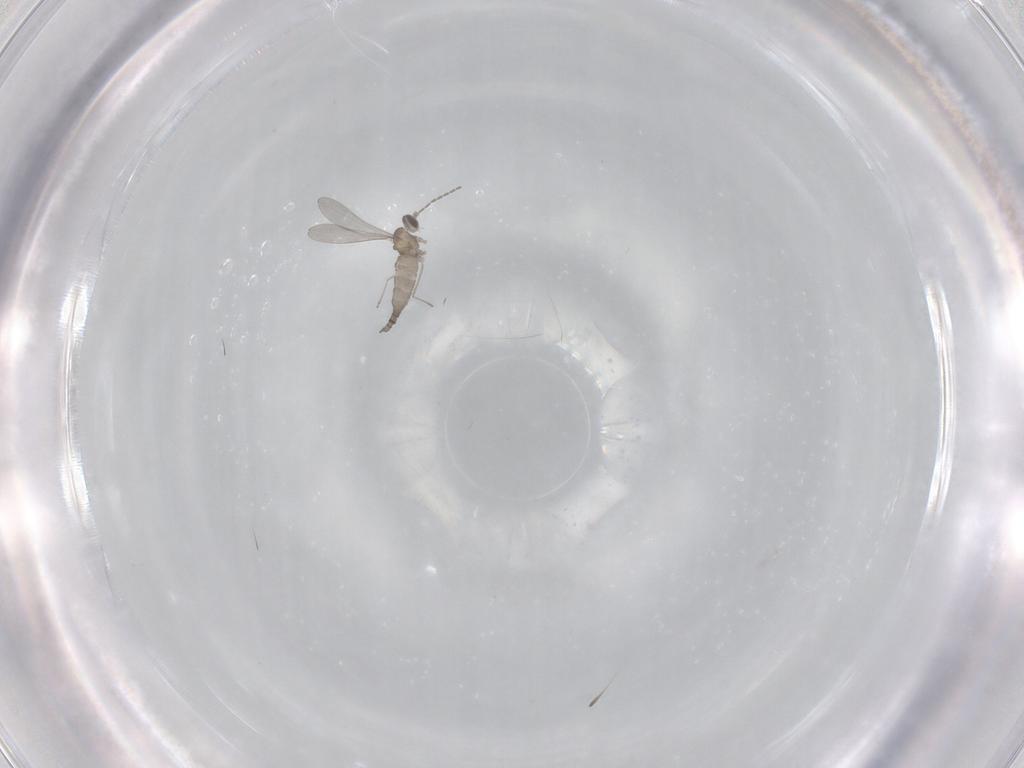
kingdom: Animalia
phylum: Arthropoda
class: Insecta
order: Diptera
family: Cecidomyiidae
